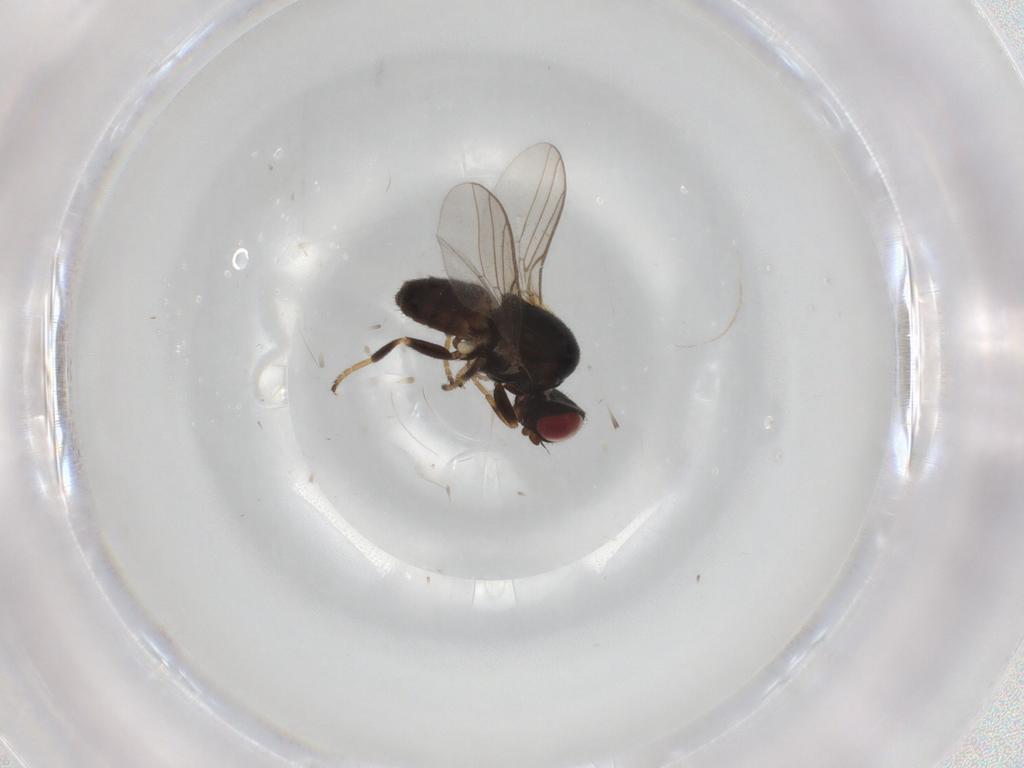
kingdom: Animalia
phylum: Arthropoda
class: Insecta
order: Diptera
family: Chloropidae
